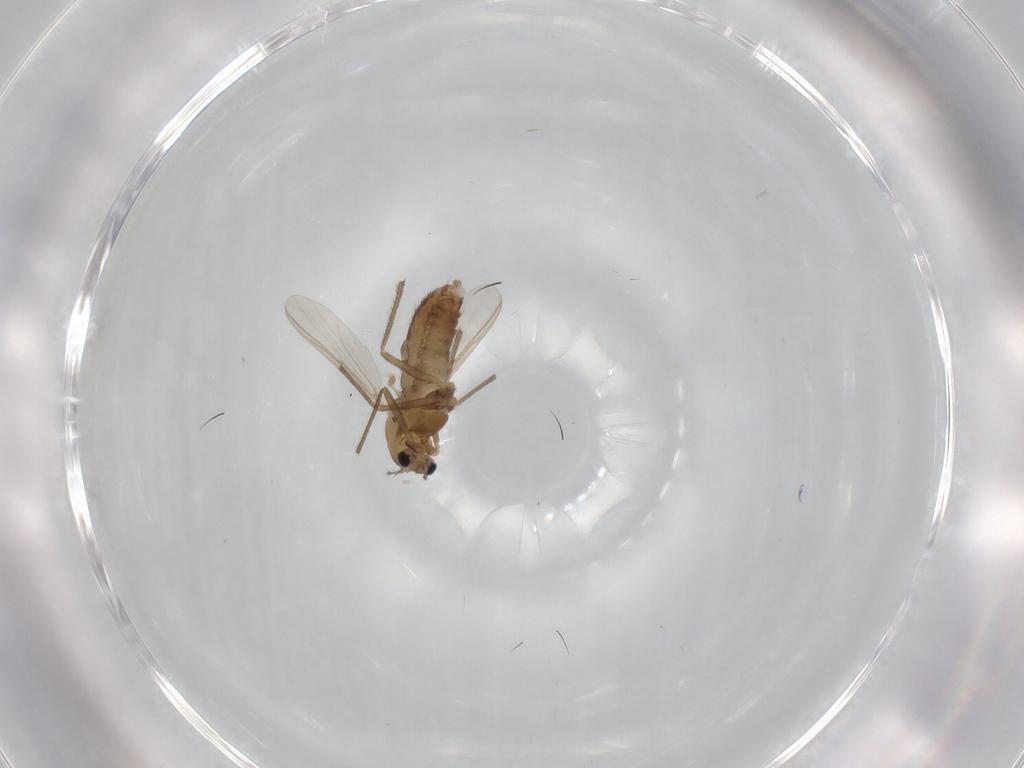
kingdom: Animalia
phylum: Arthropoda
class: Insecta
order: Diptera
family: Chironomidae
